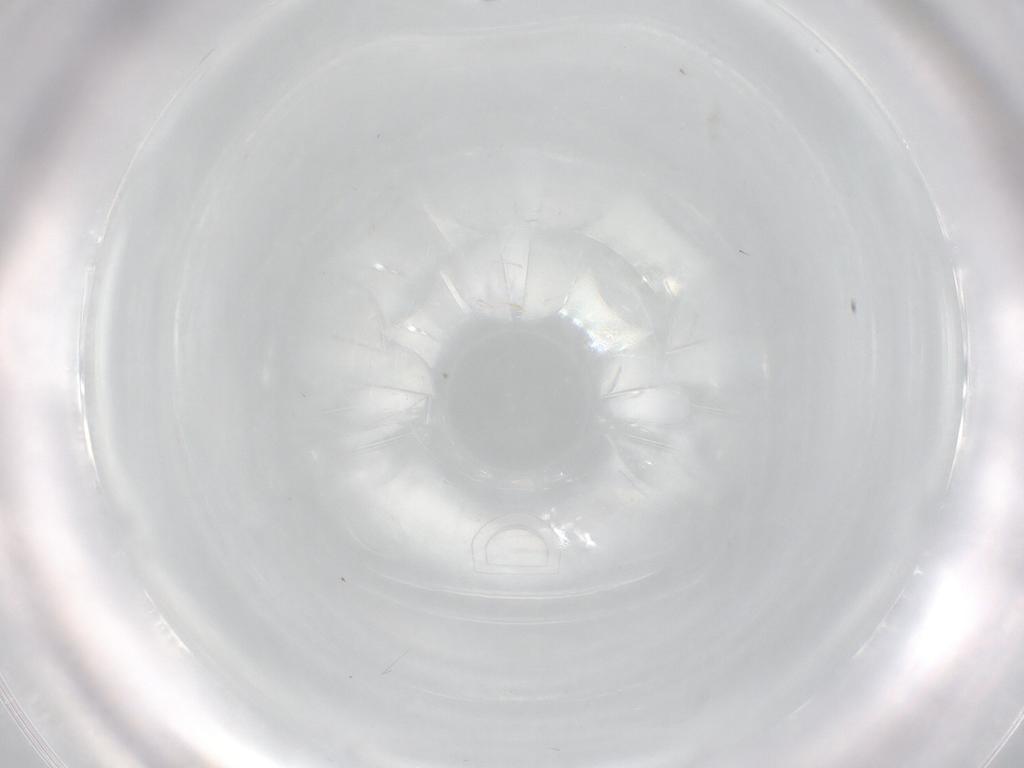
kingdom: Animalia
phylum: Arthropoda
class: Insecta
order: Diptera
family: Chironomidae
